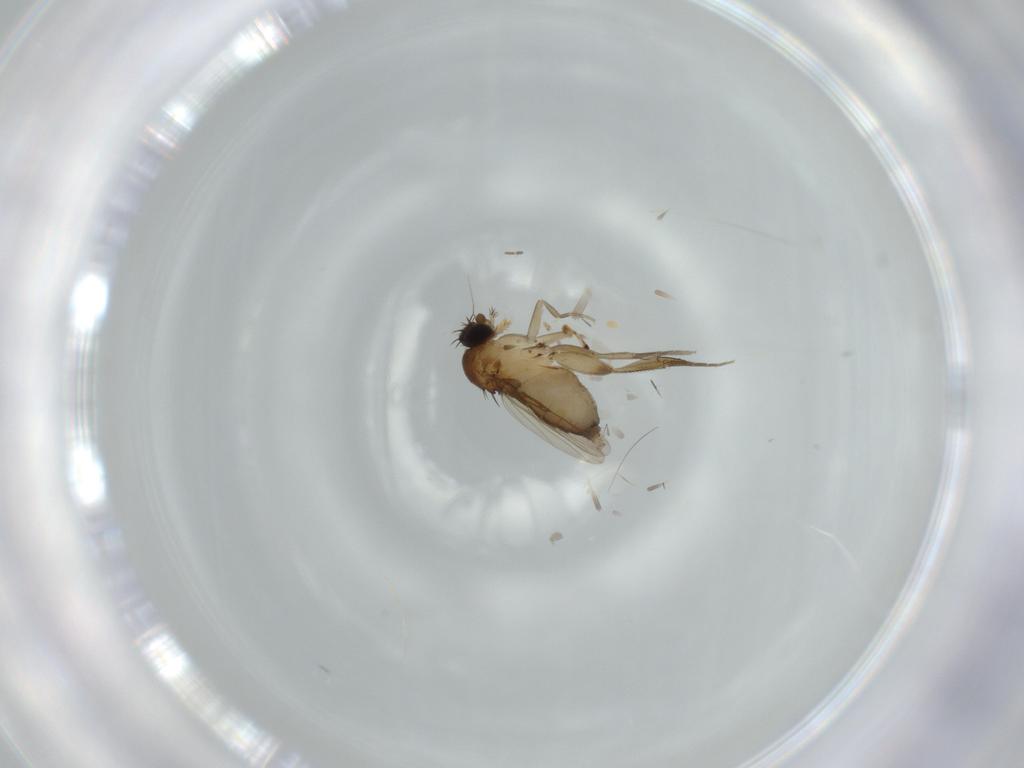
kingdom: Animalia
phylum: Arthropoda
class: Insecta
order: Diptera
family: Phoridae
